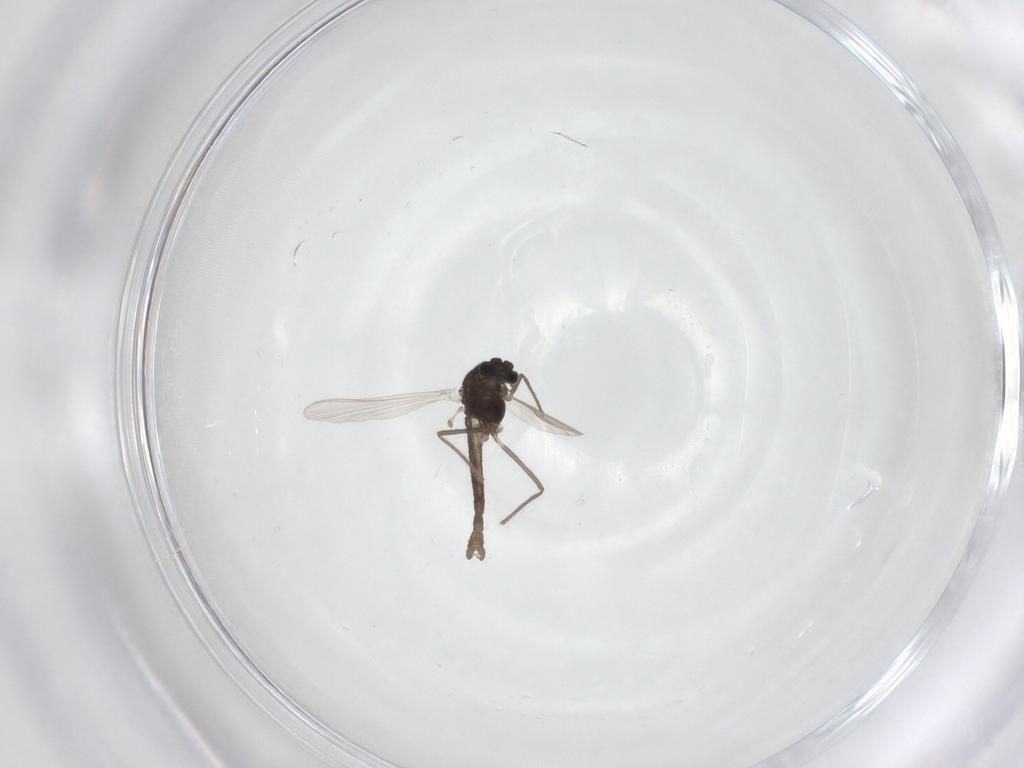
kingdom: Animalia
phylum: Arthropoda
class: Insecta
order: Diptera
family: Chironomidae
